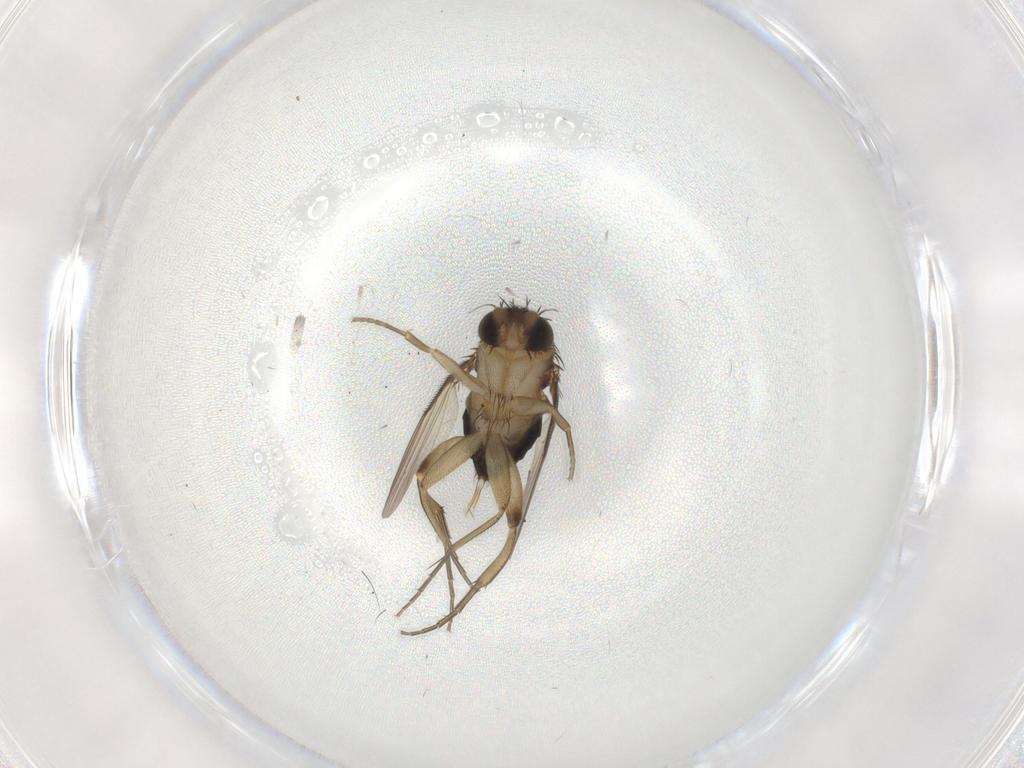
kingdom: Animalia
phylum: Arthropoda
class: Insecta
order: Diptera
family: Phoridae
